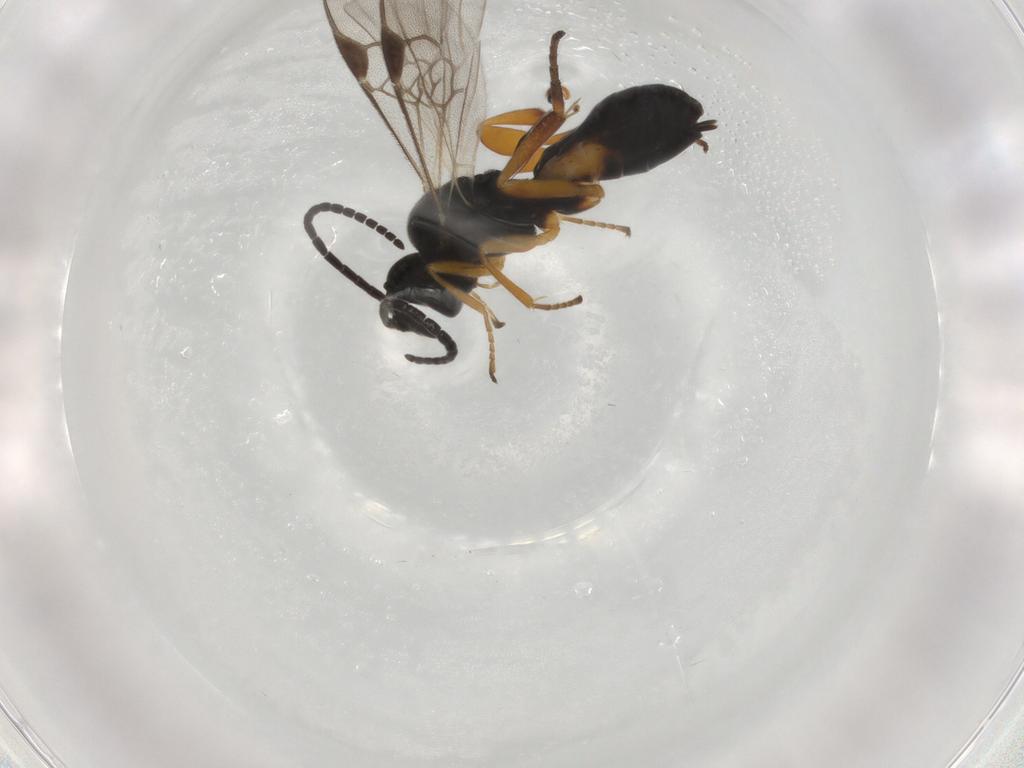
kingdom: Animalia
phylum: Arthropoda
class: Insecta
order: Hymenoptera
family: Braconidae
